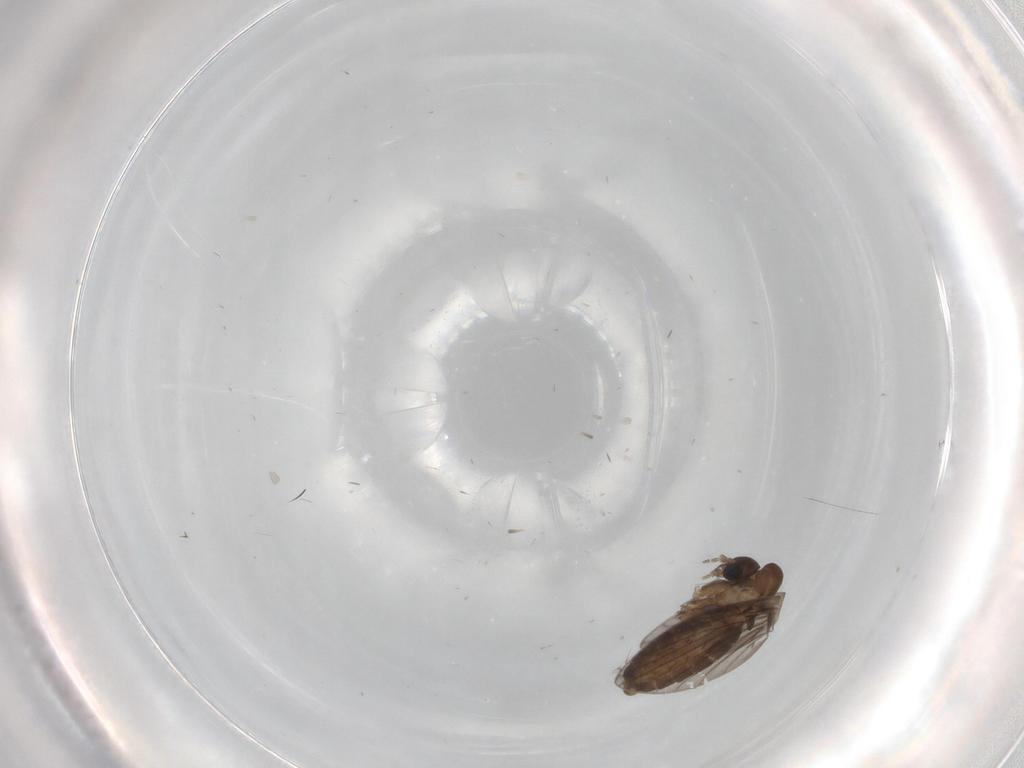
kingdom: Animalia
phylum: Arthropoda
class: Insecta
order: Diptera
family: Psychodidae
